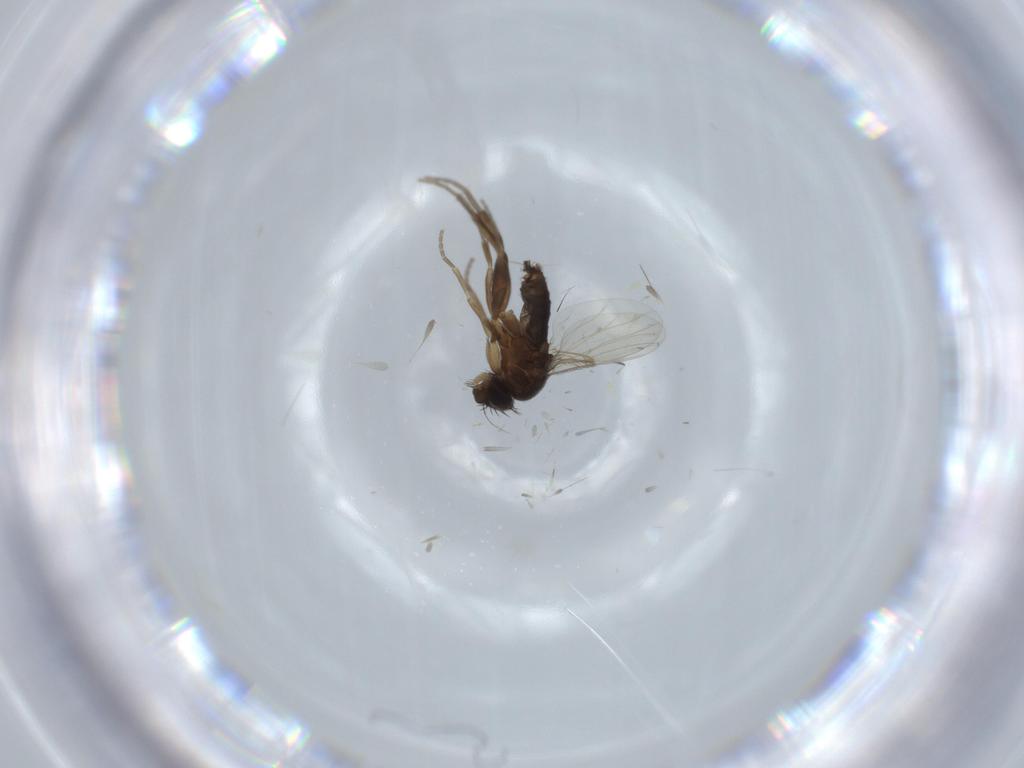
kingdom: Animalia
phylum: Arthropoda
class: Insecta
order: Diptera
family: Phoridae
